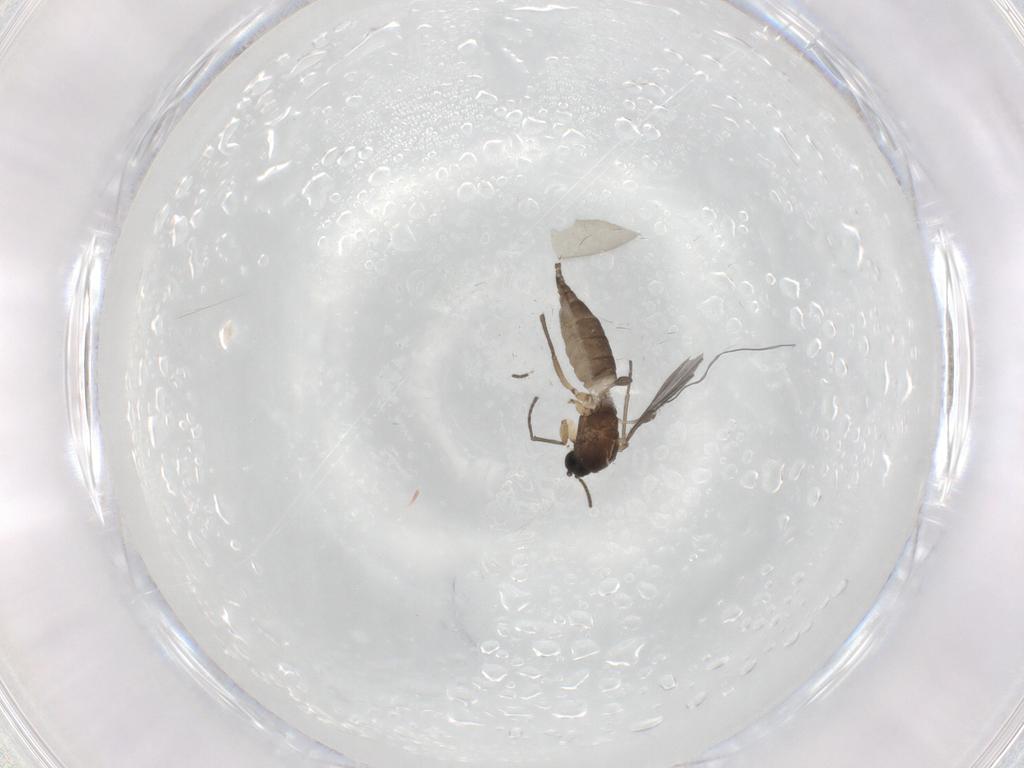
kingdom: Animalia
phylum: Arthropoda
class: Insecta
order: Diptera
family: Sciaridae
